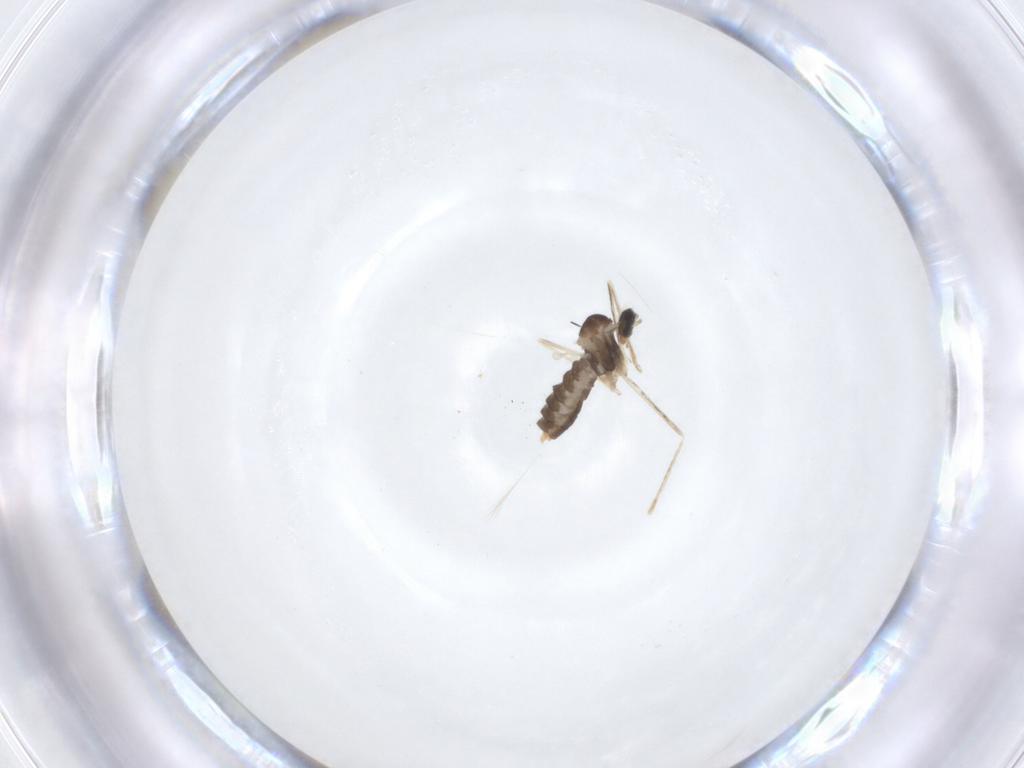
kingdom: Animalia
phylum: Arthropoda
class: Insecta
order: Diptera
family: Cecidomyiidae
